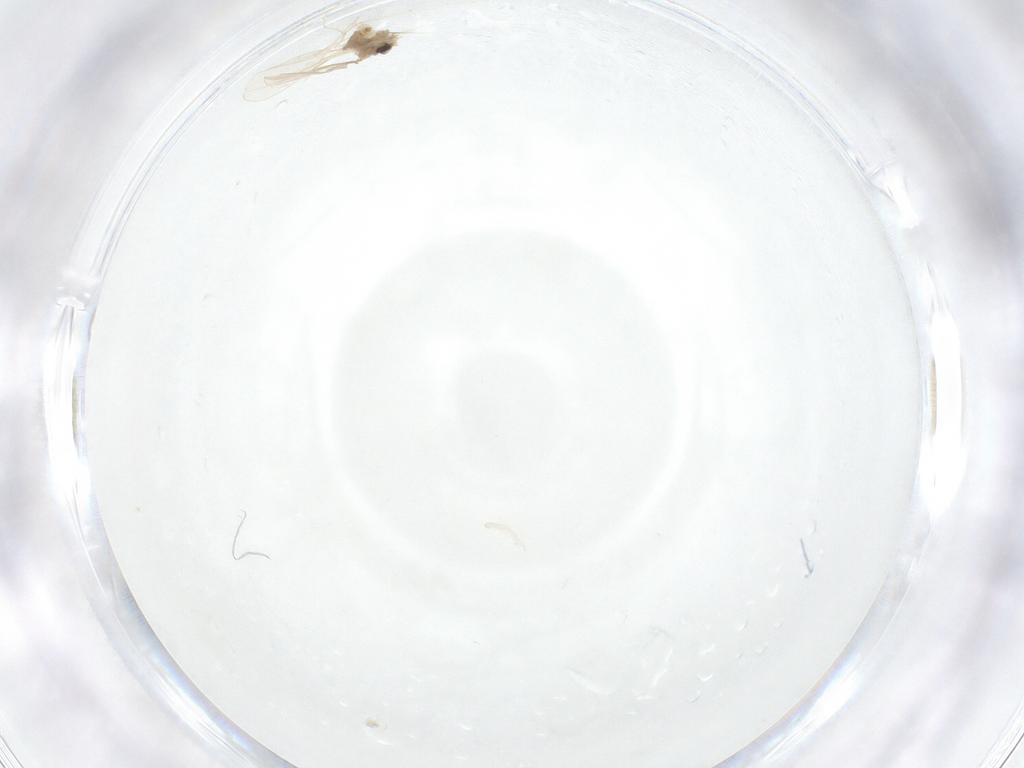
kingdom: Animalia
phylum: Arthropoda
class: Insecta
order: Diptera
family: Cecidomyiidae
